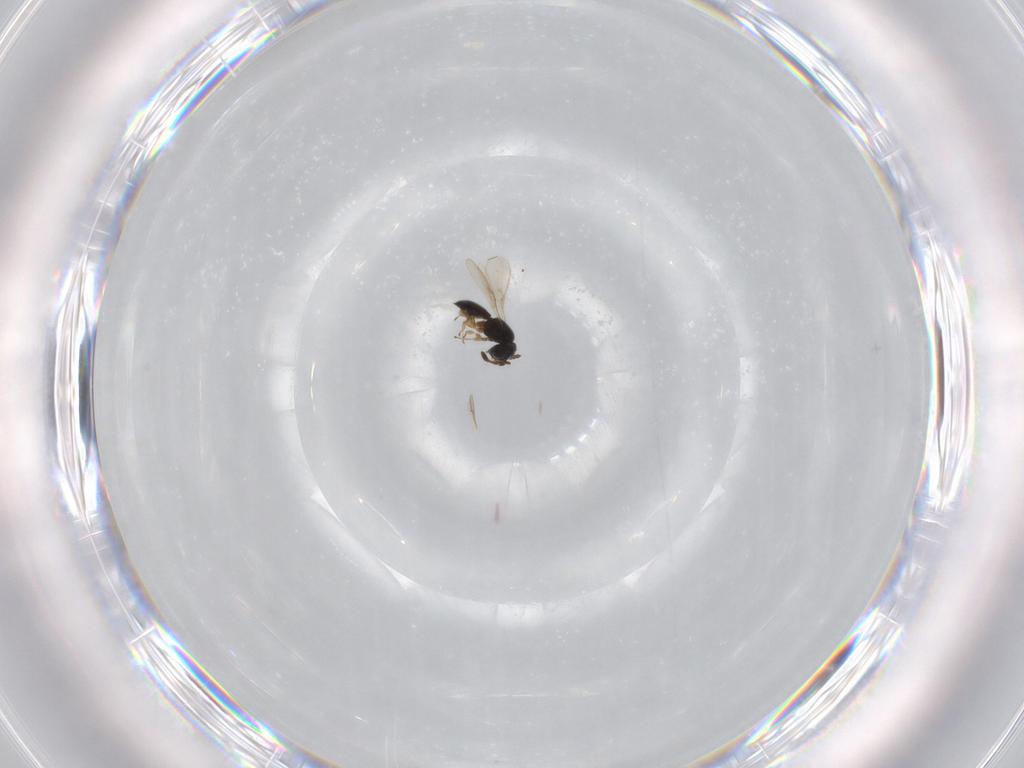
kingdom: Animalia
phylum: Arthropoda
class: Insecta
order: Hymenoptera
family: Scelionidae
